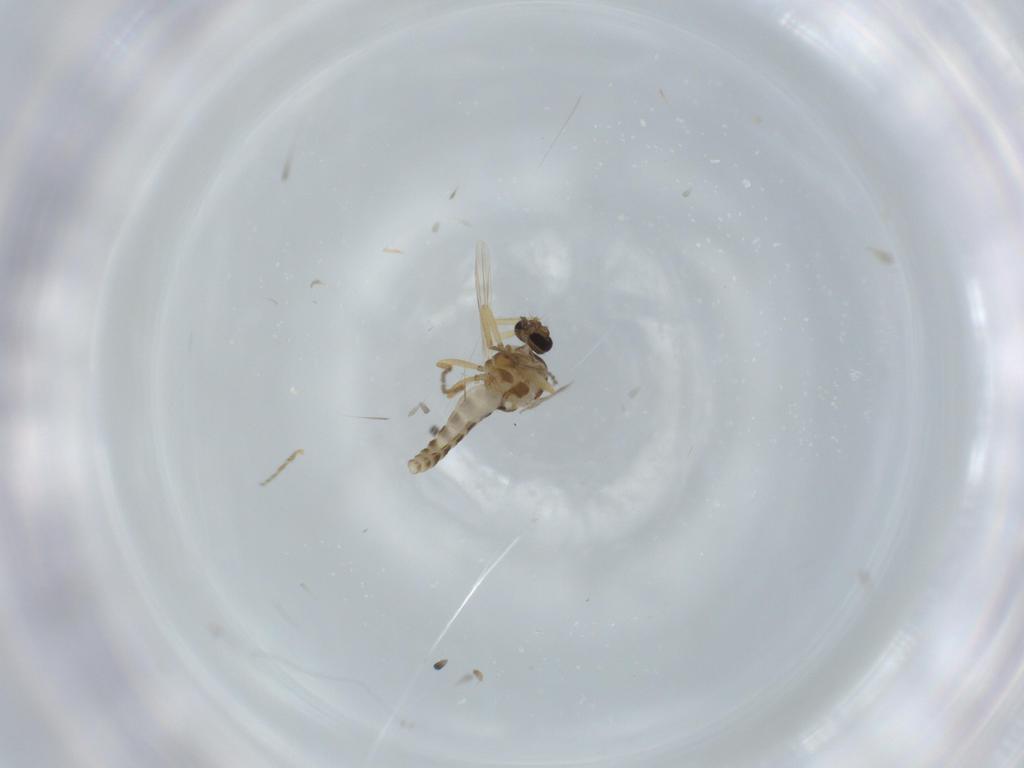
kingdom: Animalia
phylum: Arthropoda
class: Insecta
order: Diptera
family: Ceratopogonidae
